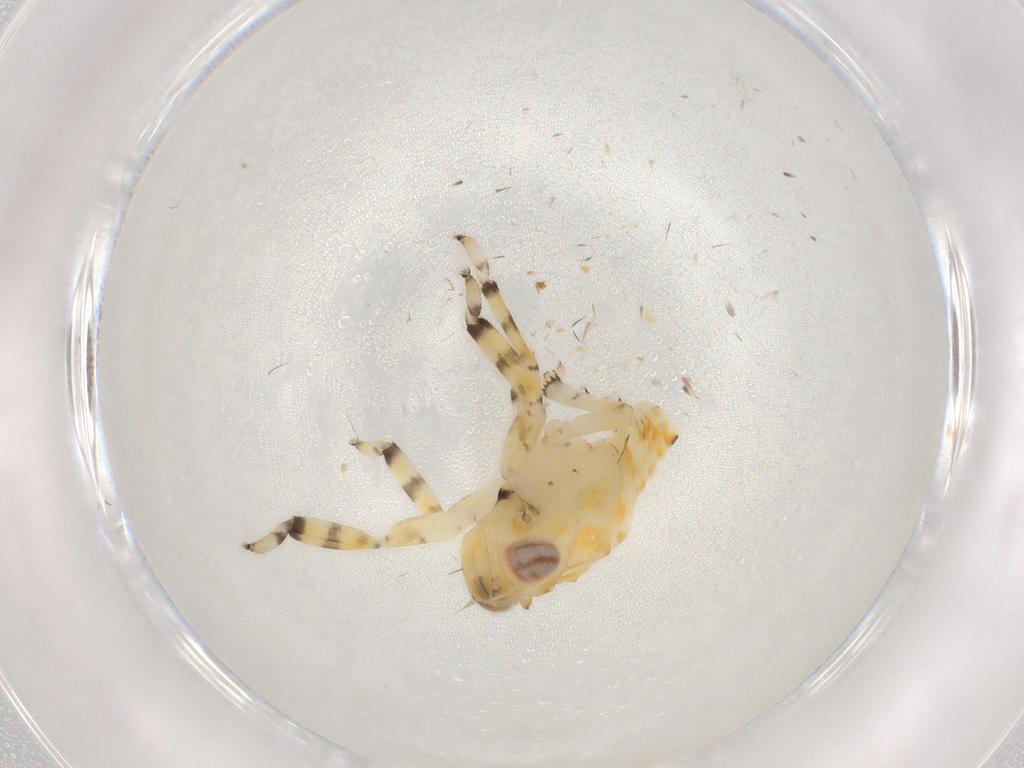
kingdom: Animalia
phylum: Arthropoda
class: Insecta
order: Hemiptera
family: Issidae
